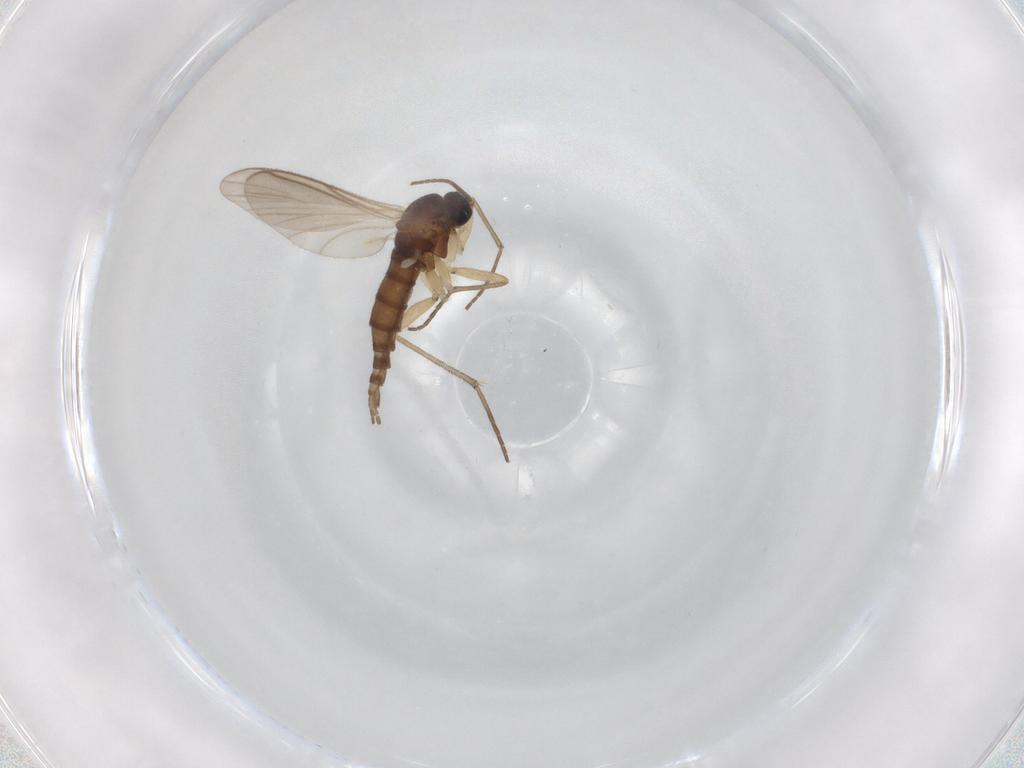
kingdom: Animalia
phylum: Arthropoda
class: Insecta
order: Diptera
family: Sciaridae
